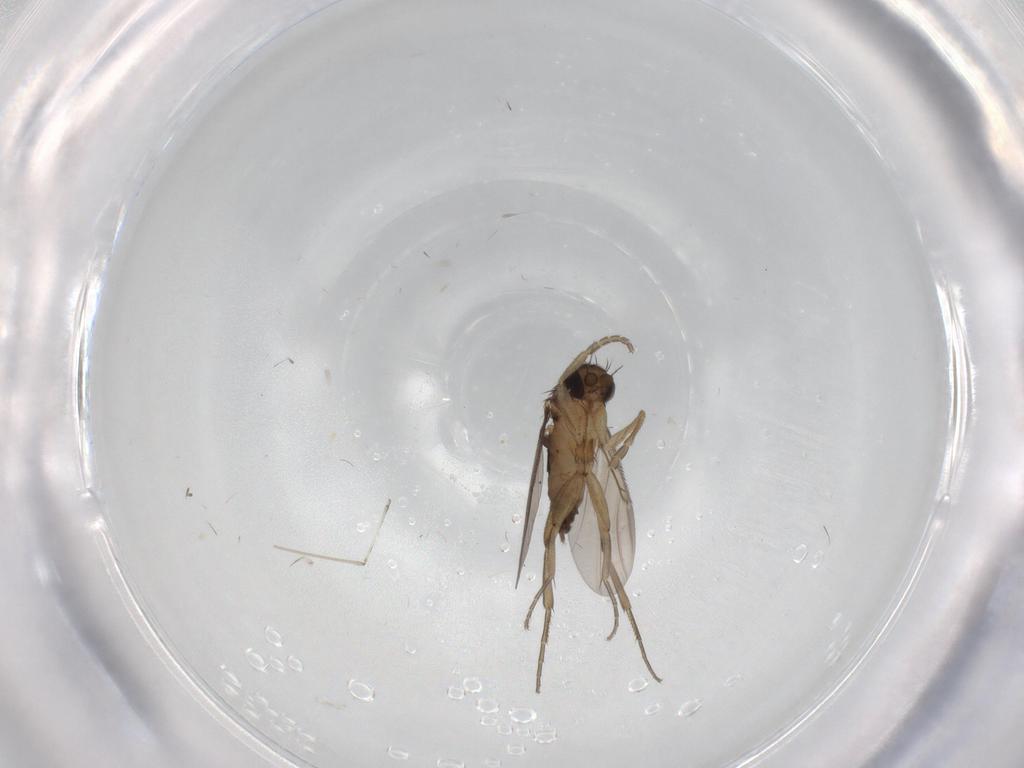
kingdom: Animalia
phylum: Arthropoda
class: Insecta
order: Diptera
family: Phoridae
